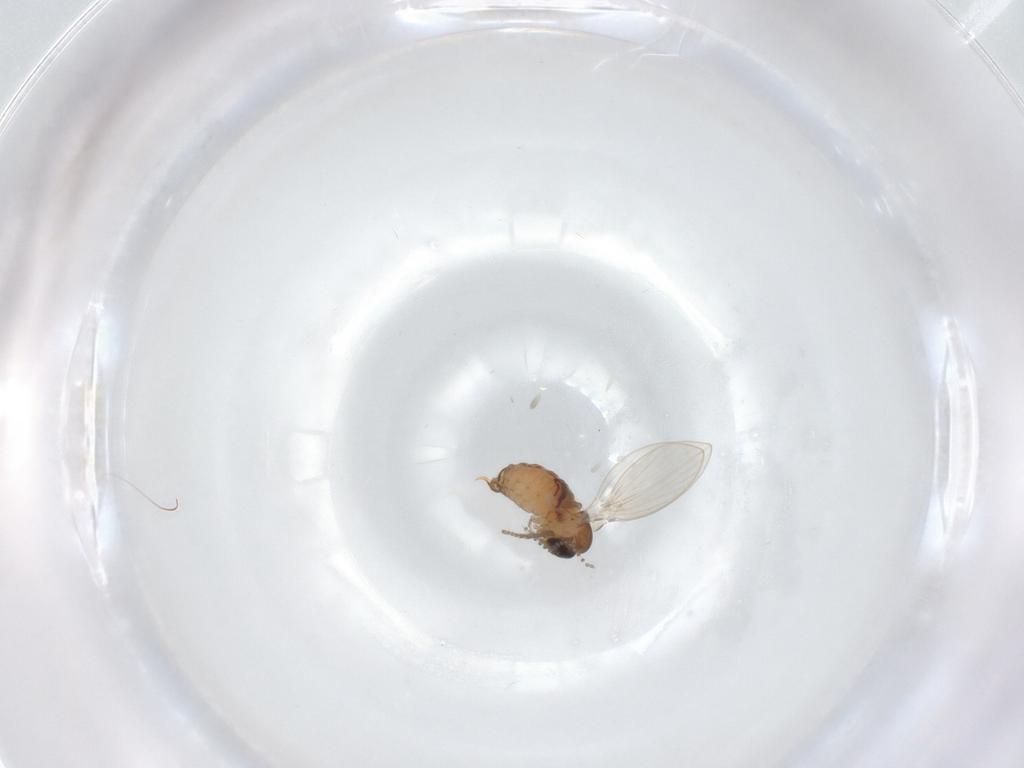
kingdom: Animalia
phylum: Arthropoda
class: Insecta
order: Diptera
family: Psychodidae
